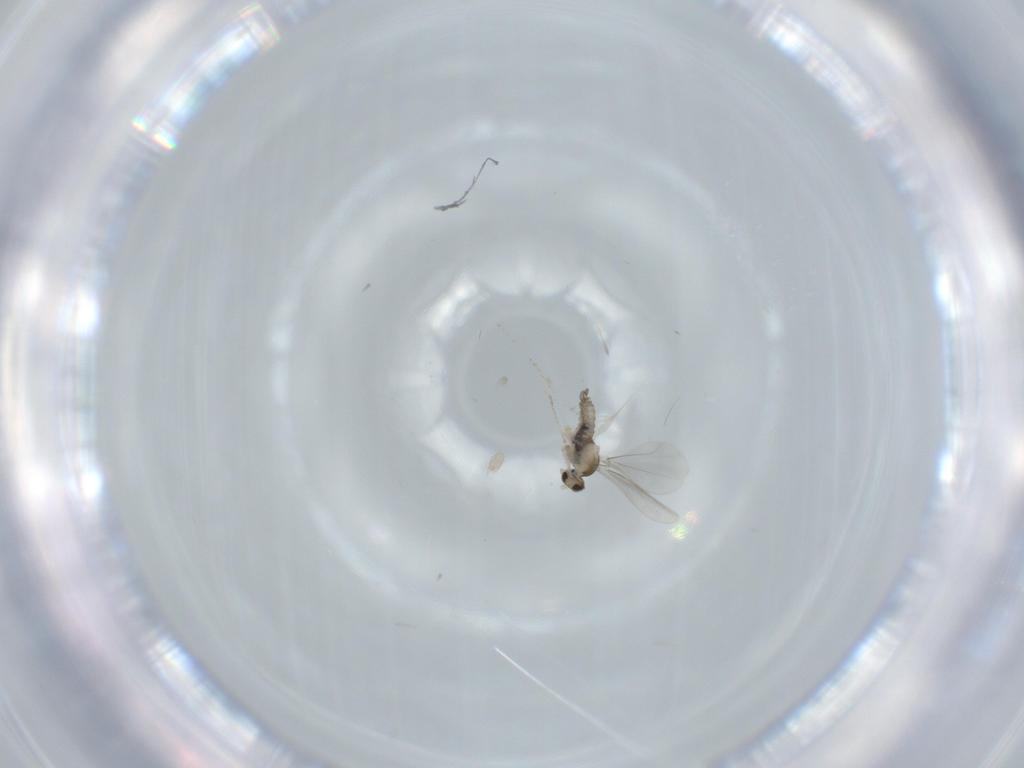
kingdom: Animalia
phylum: Arthropoda
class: Insecta
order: Diptera
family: Cecidomyiidae
